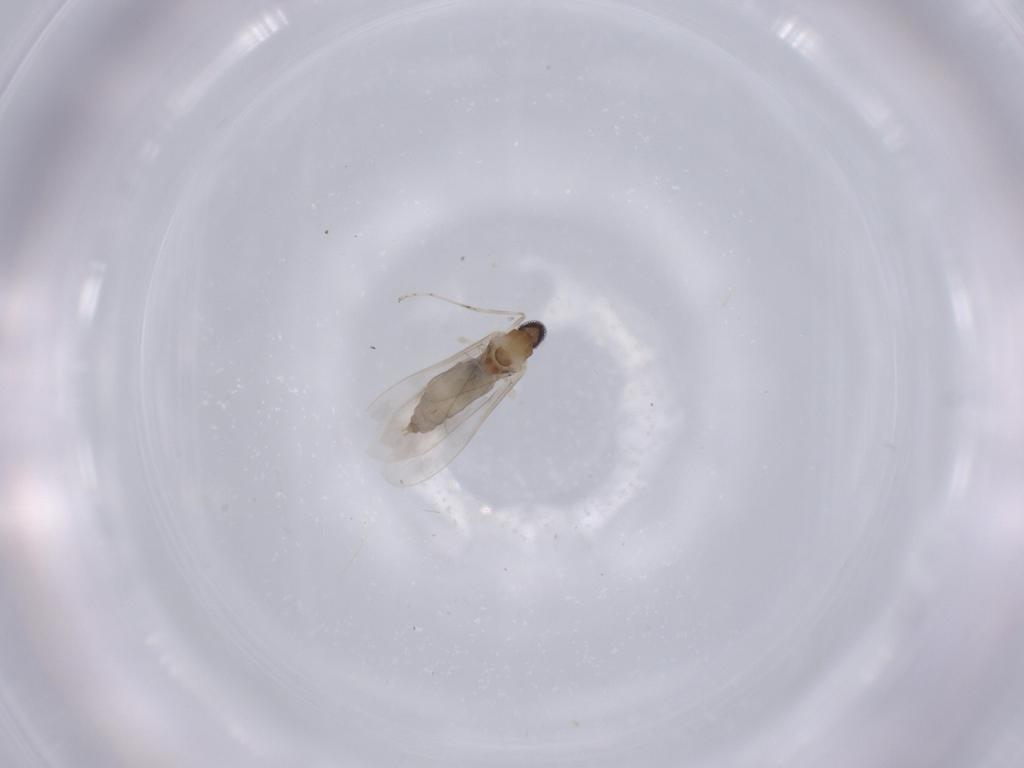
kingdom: Animalia
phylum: Arthropoda
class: Insecta
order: Diptera
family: Cecidomyiidae
